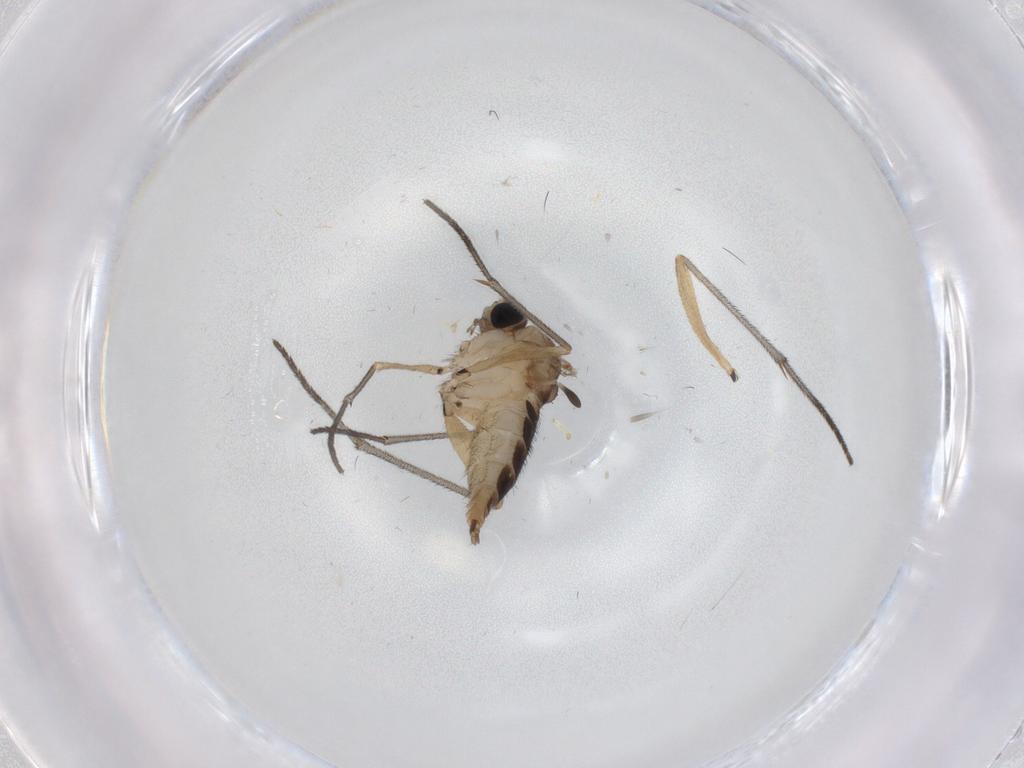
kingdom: Animalia
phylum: Arthropoda
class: Insecta
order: Diptera
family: Sciaridae
